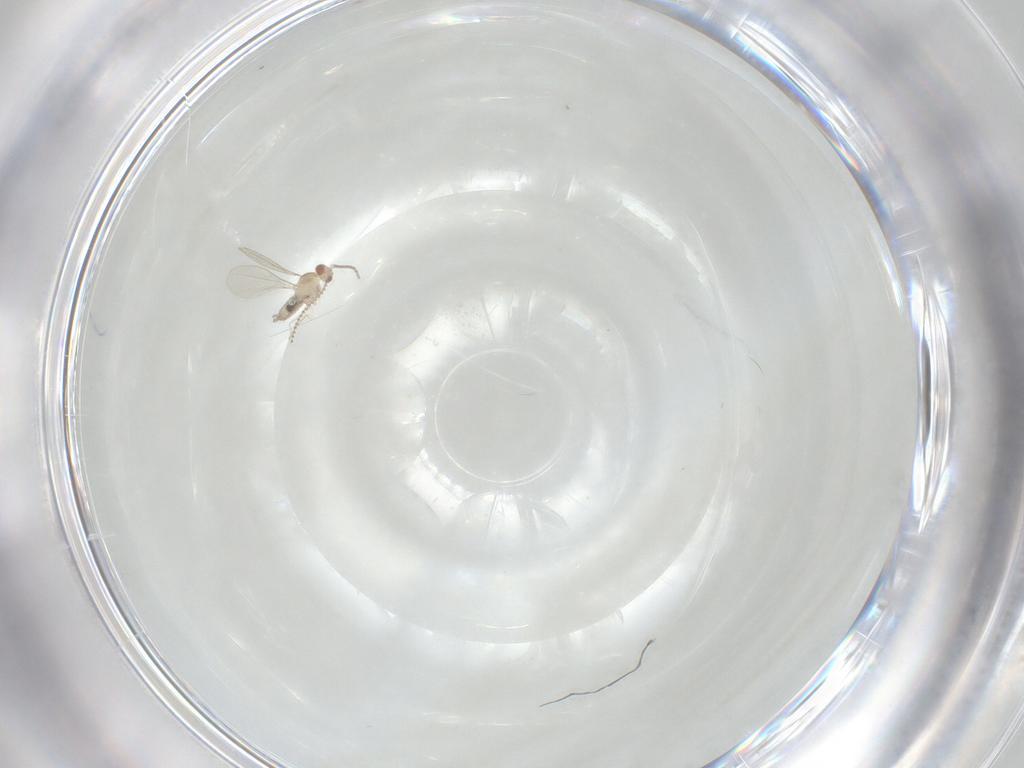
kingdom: Animalia
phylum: Arthropoda
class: Insecta
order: Diptera
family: Cecidomyiidae
